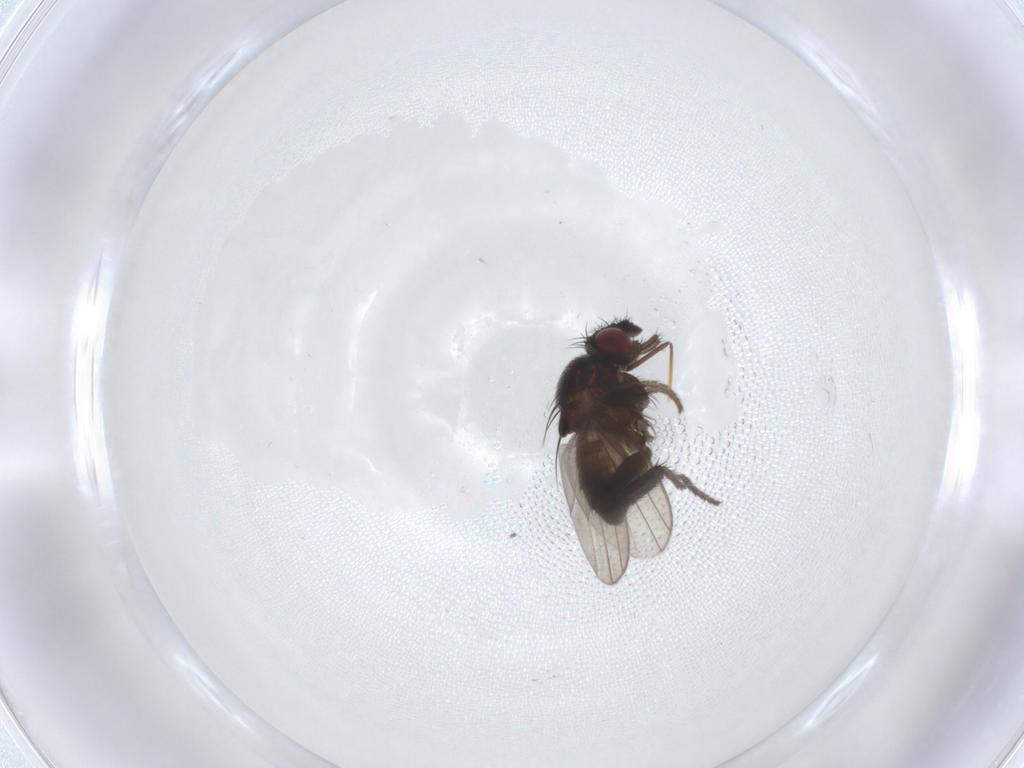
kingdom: Animalia
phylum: Arthropoda
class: Insecta
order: Diptera
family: Milichiidae
